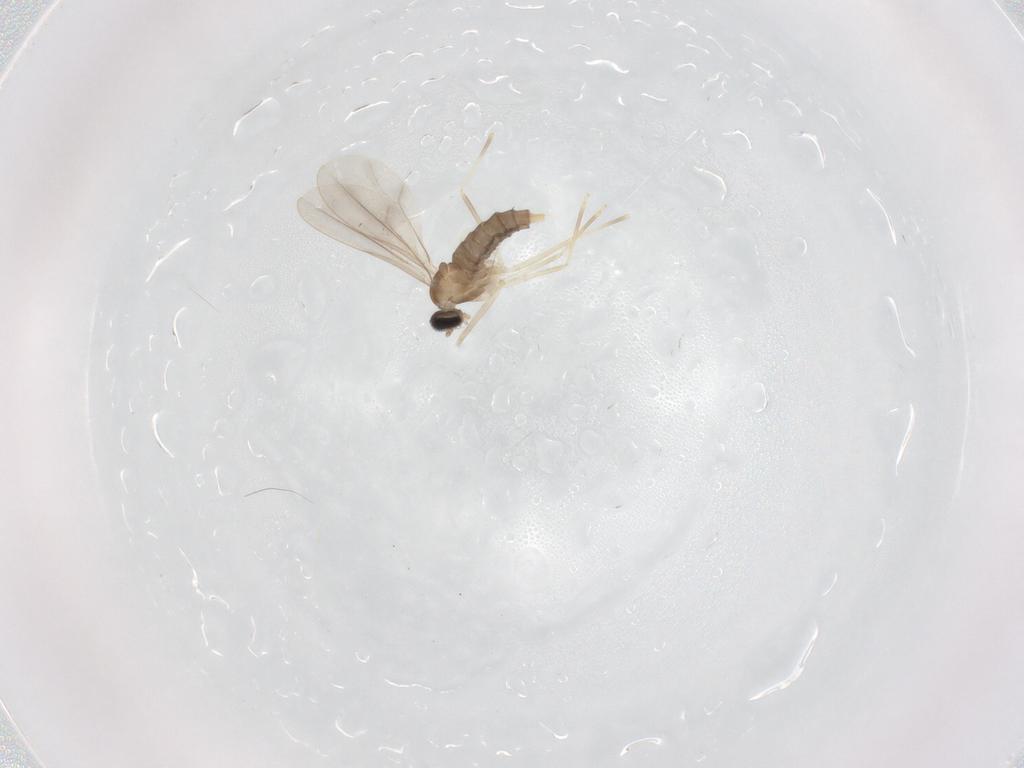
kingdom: Animalia
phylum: Arthropoda
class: Insecta
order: Diptera
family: Cecidomyiidae
